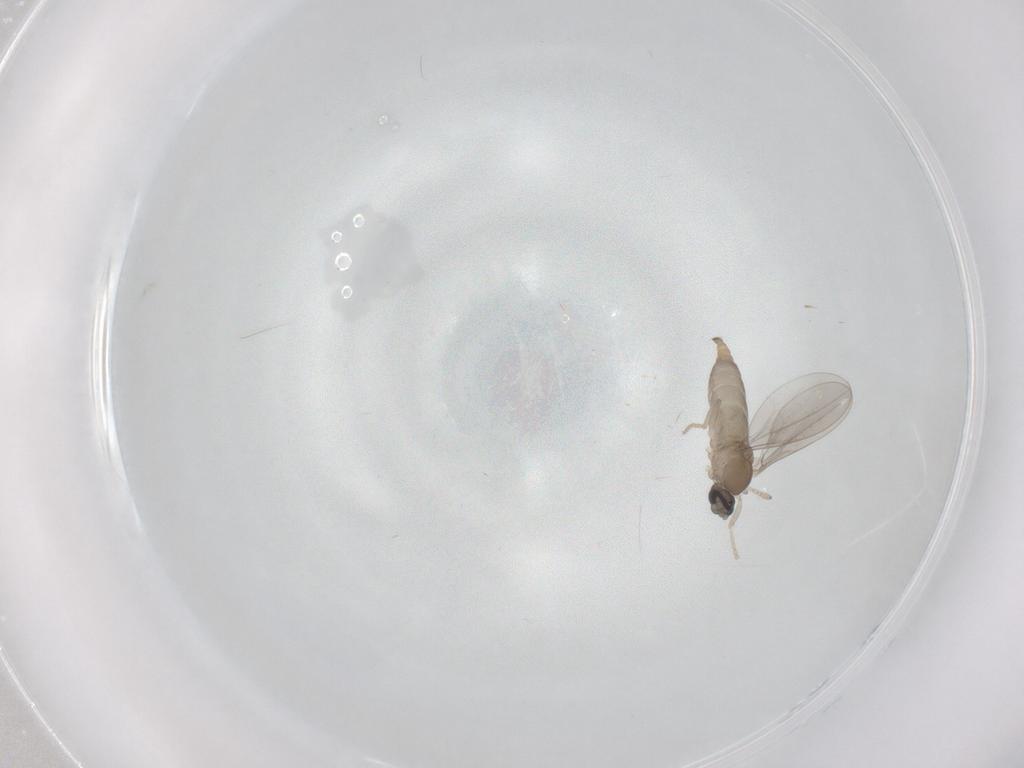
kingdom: Animalia
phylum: Arthropoda
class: Insecta
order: Diptera
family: Cecidomyiidae
